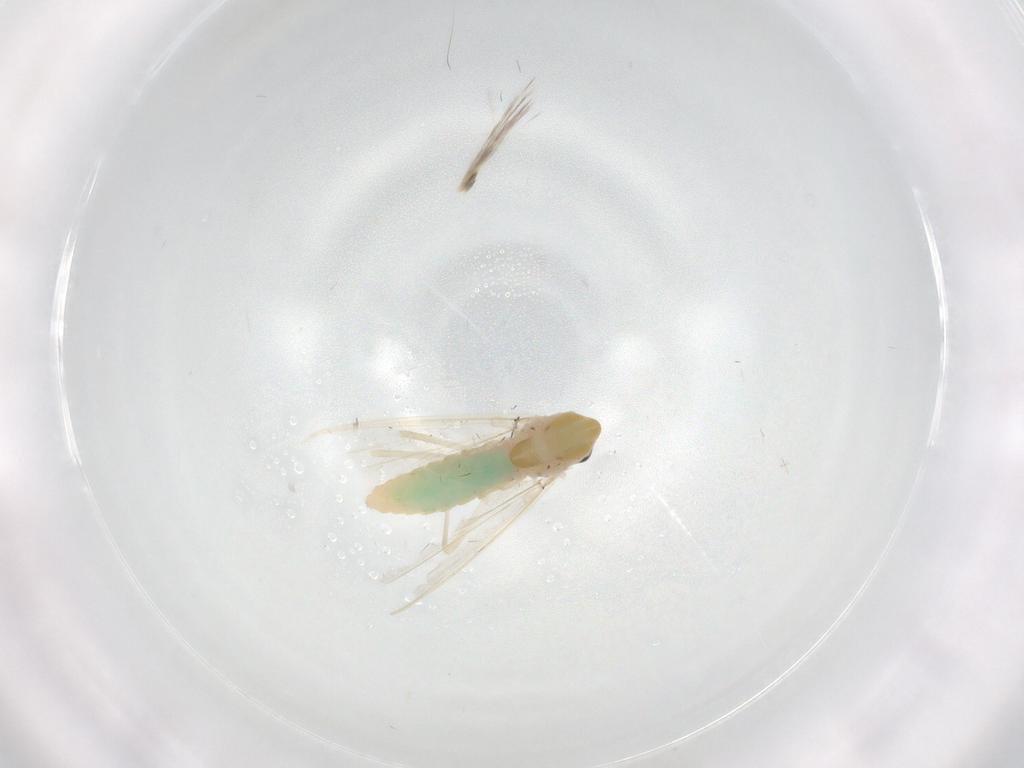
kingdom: Animalia
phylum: Arthropoda
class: Insecta
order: Diptera
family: Chironomidae
